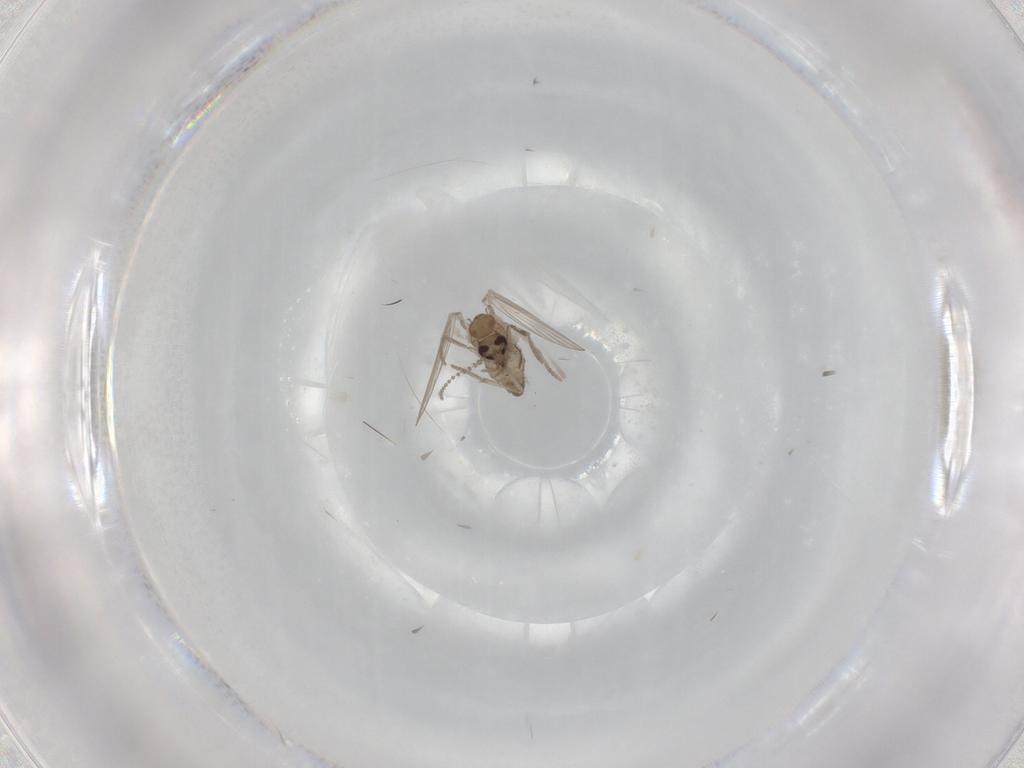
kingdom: Animalia
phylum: Arthropoda
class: Insecta
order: Diptera
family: Psychodidae
